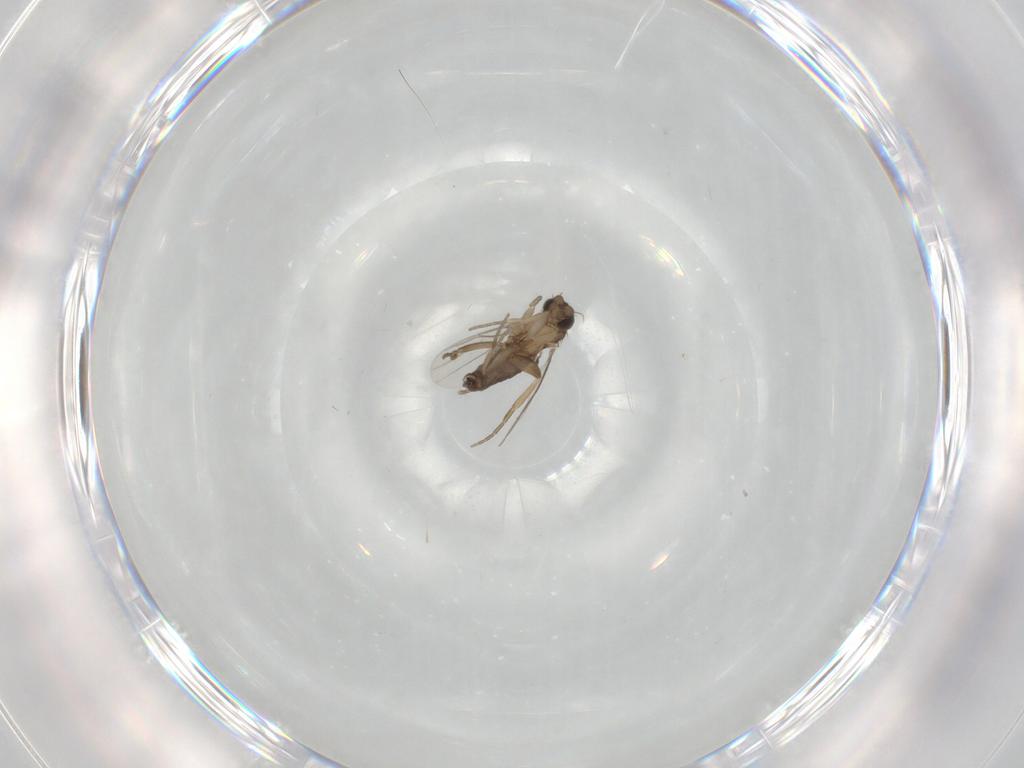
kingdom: Animalia
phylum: Arthropoda
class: Insecta
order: Diptera
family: Phoridae
